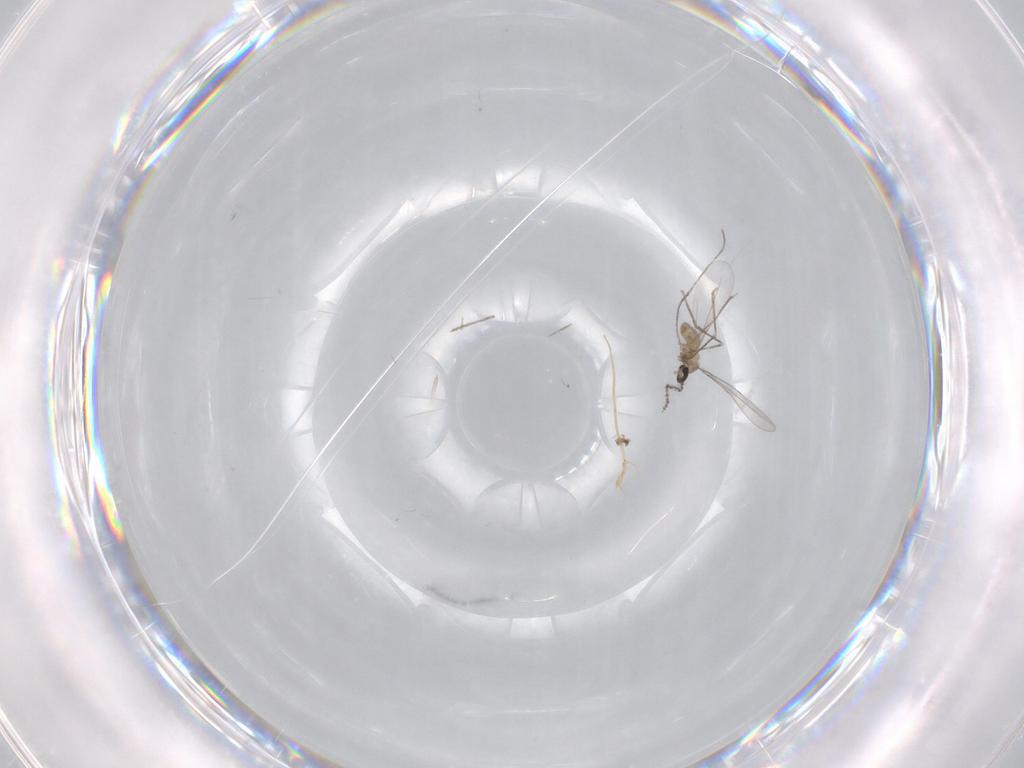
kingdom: Animalia
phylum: Arthropoda
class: Insecta
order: Diptera
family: Cecidomyiidae
